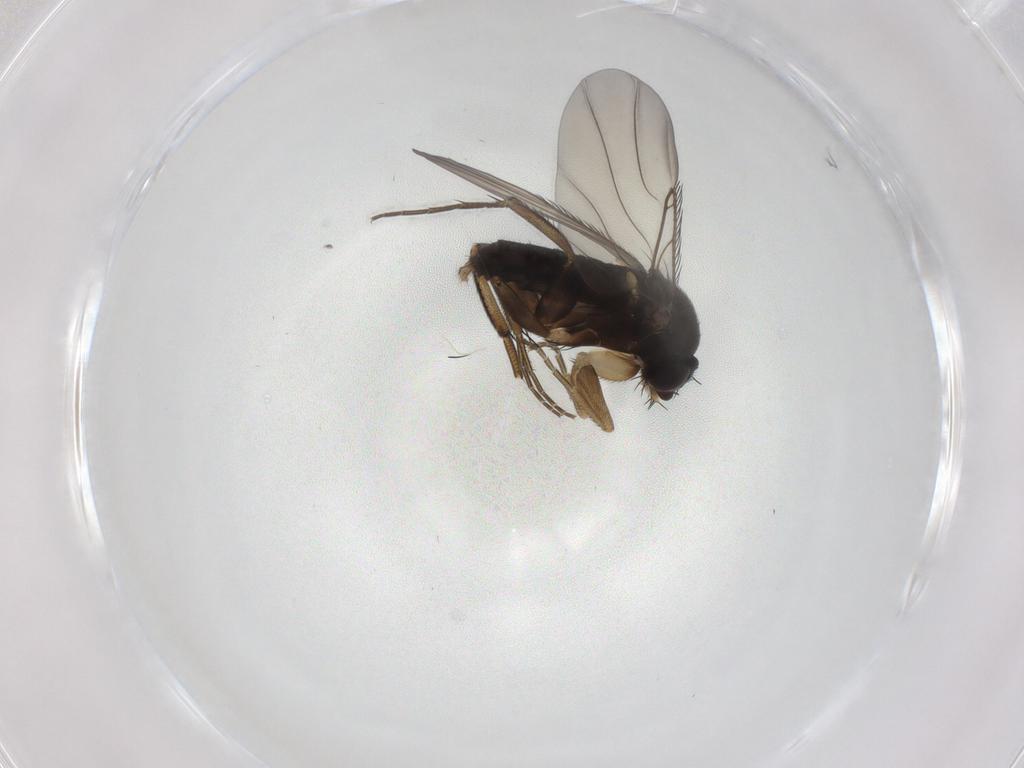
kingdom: Animalia
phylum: Arthropoda
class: Insecta
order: Diptera
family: Phoridae
